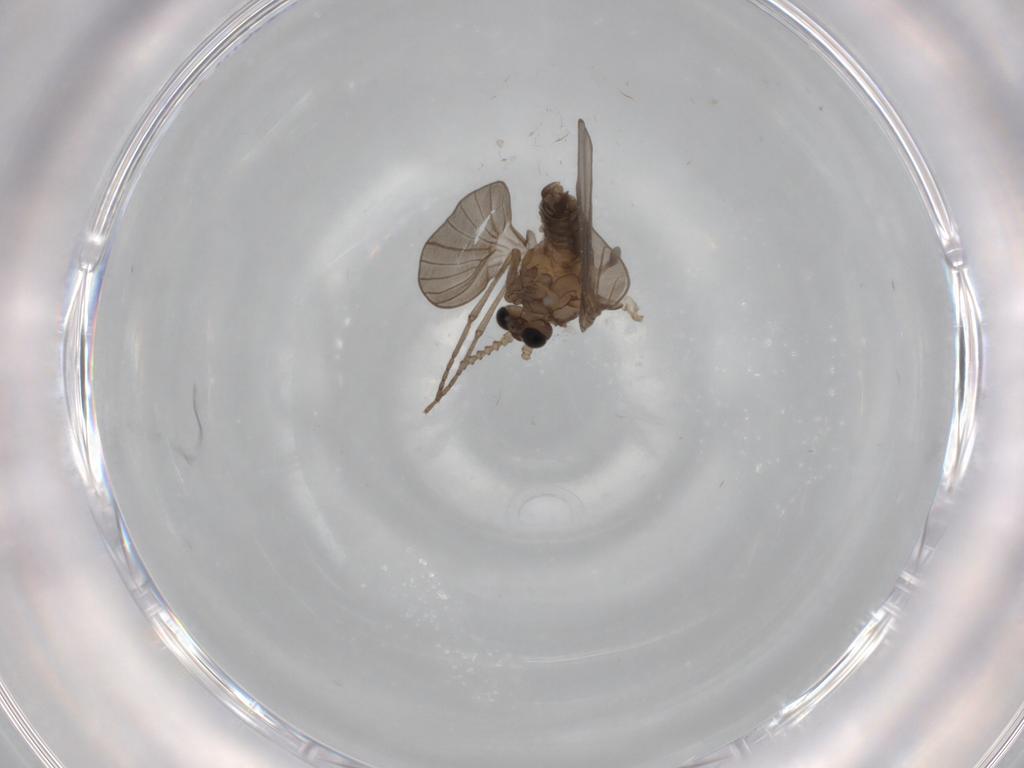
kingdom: Animalia
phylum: Arthropoda
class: Insecta
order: Diptera
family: Psychodidae
